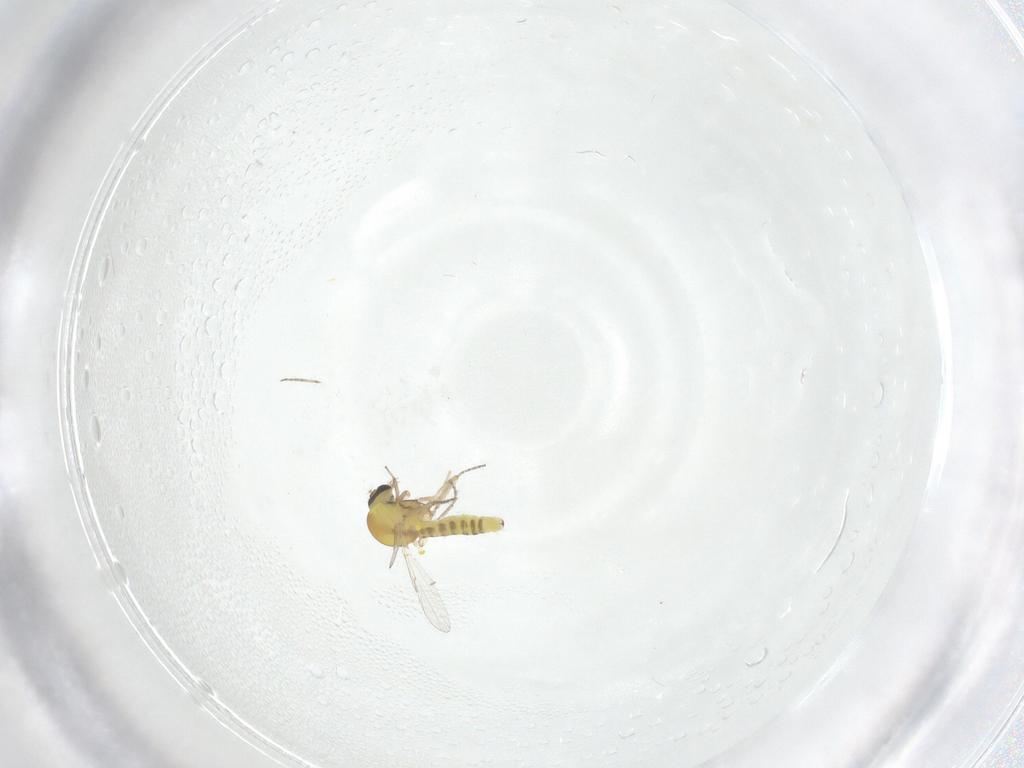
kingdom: Animalia
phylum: Arthropoda
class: Insecta
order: Diptera
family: Ceratopogonidae
